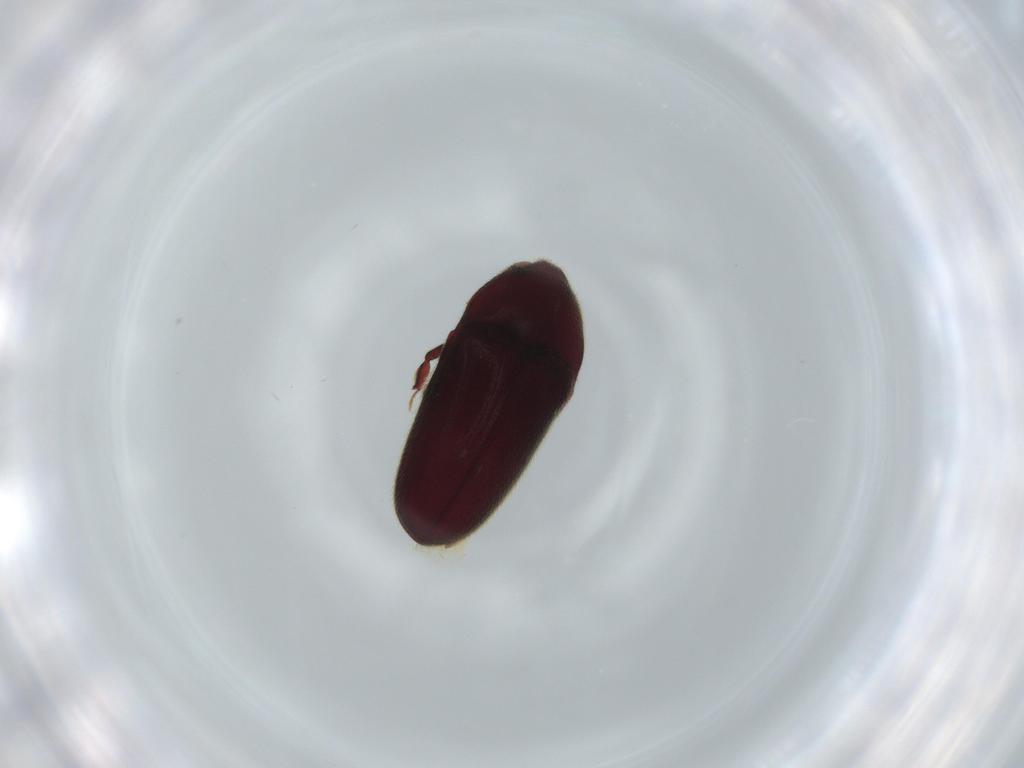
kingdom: Animalia
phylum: Arthropoda
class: Insecta
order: Coleoptera
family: Throscidae
